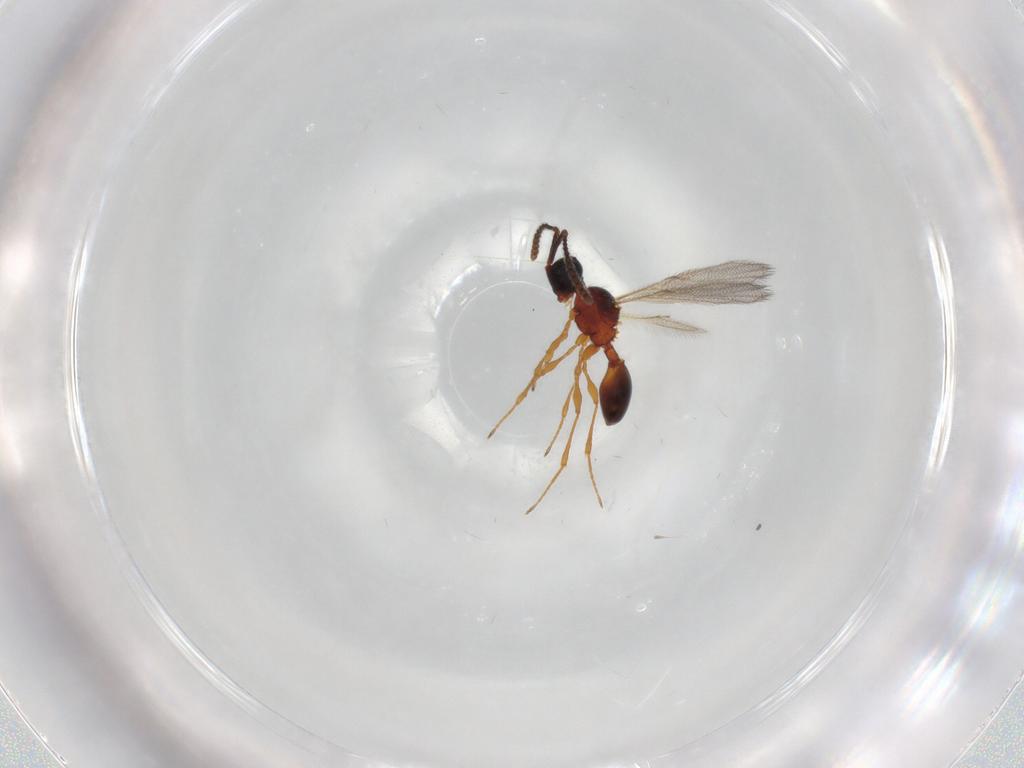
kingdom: Animalia
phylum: Arthropoda
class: Insecta
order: Hymenoptera
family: Diapriidae
